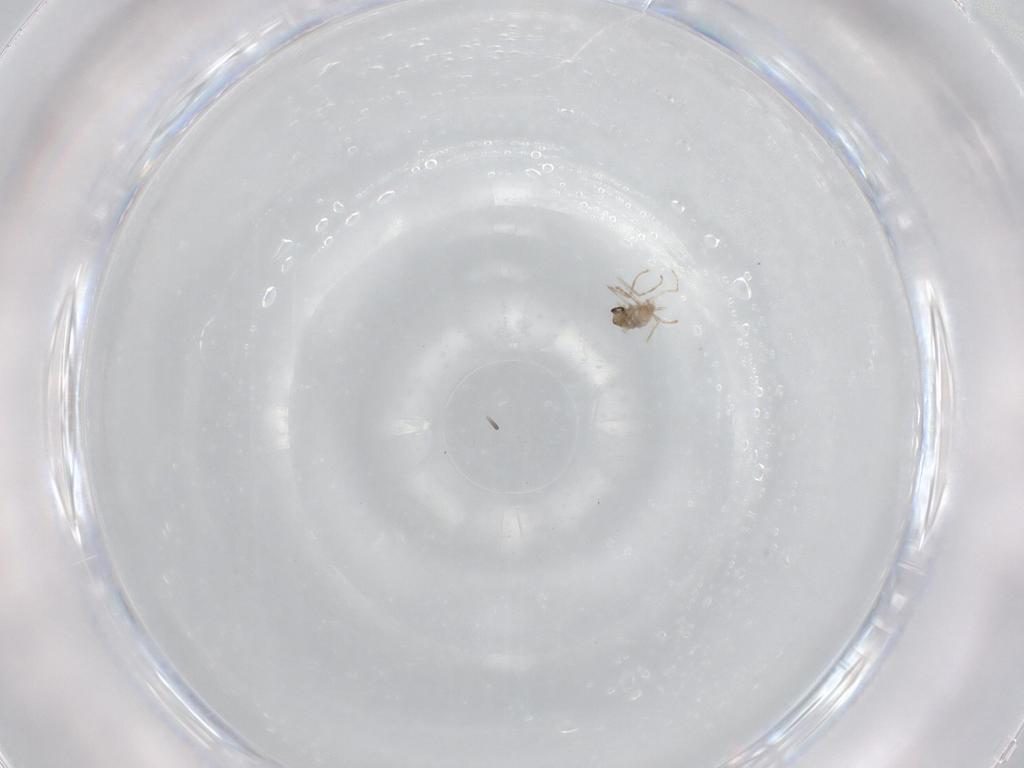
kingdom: Animalia
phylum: Arthropoda
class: Insecta
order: Diptera
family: Cecidomyiidae
